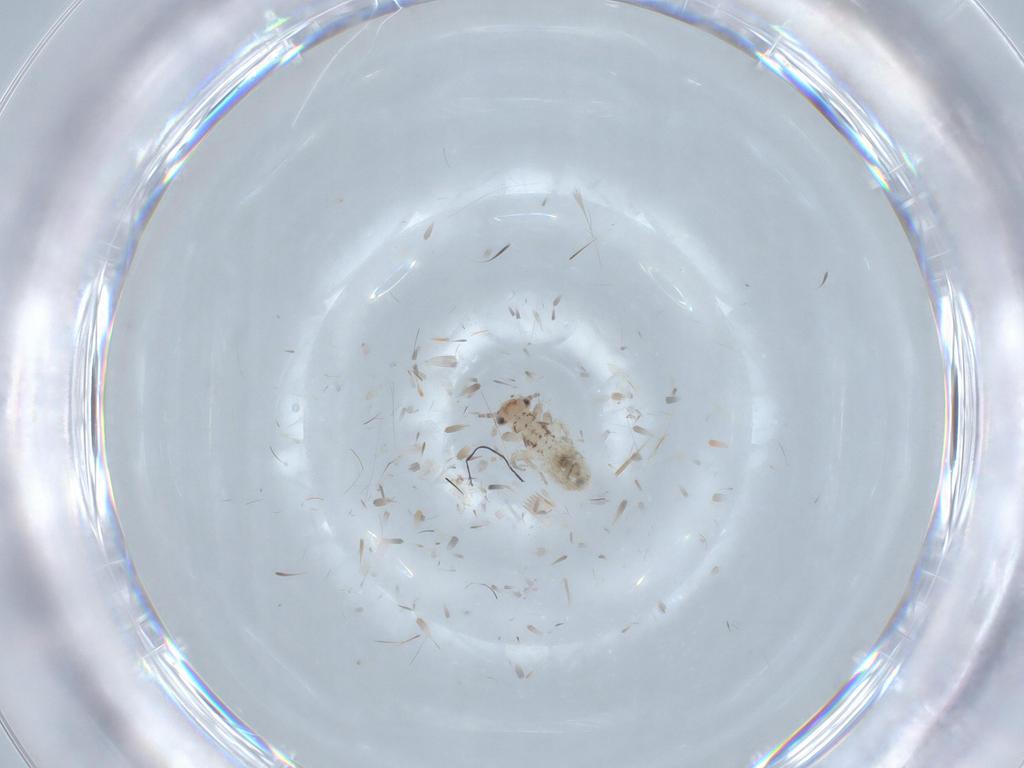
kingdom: Animalia
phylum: Arthropoda
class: Insecta
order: Psocodea
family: Lepidopsocidae
